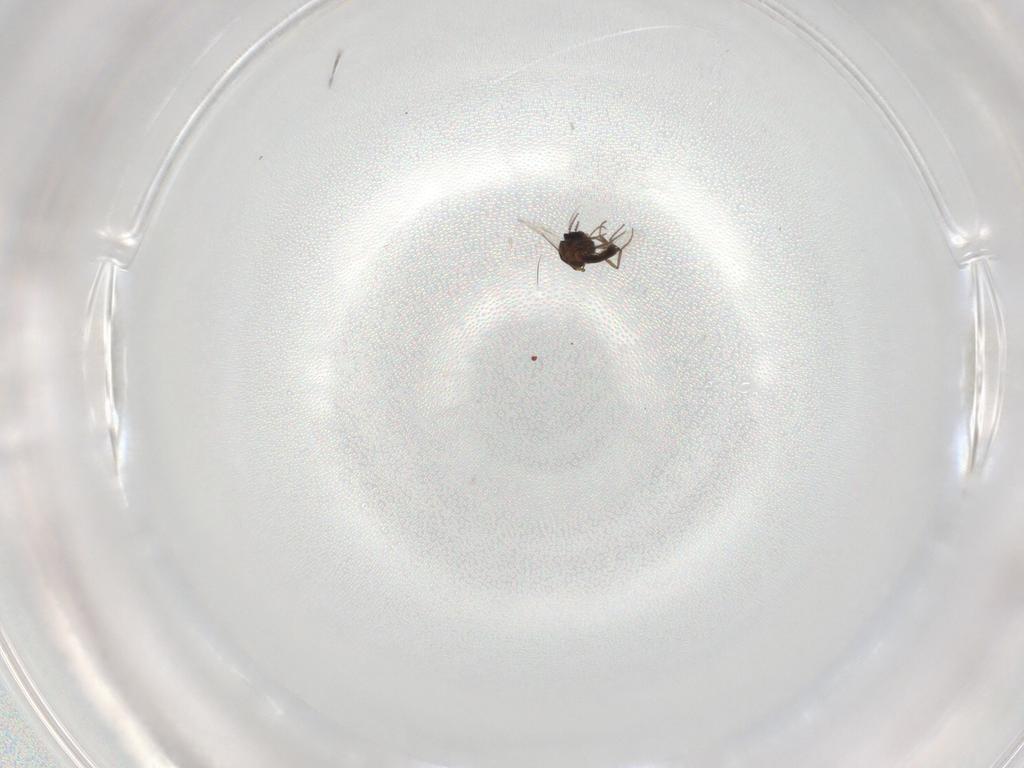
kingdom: Animalia
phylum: Arthropoda
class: Insecta
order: Diptera
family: Ceratopogonidae
